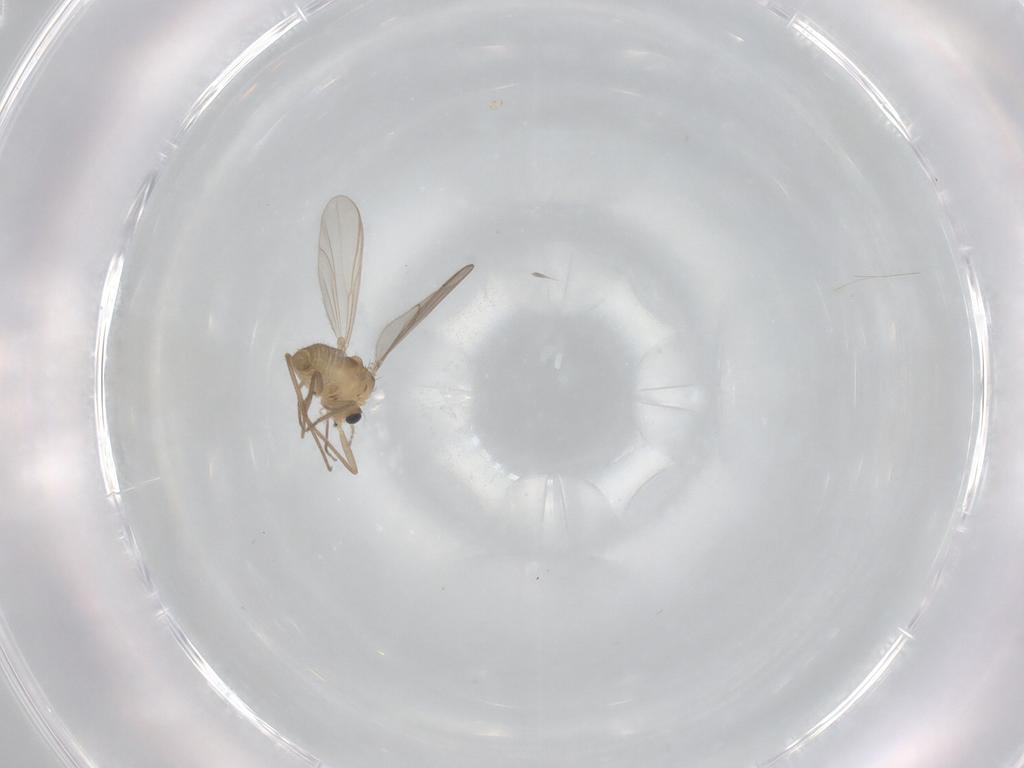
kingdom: Animalia
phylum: Arthropoda
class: Insecta
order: Diptera
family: Chironomidae
